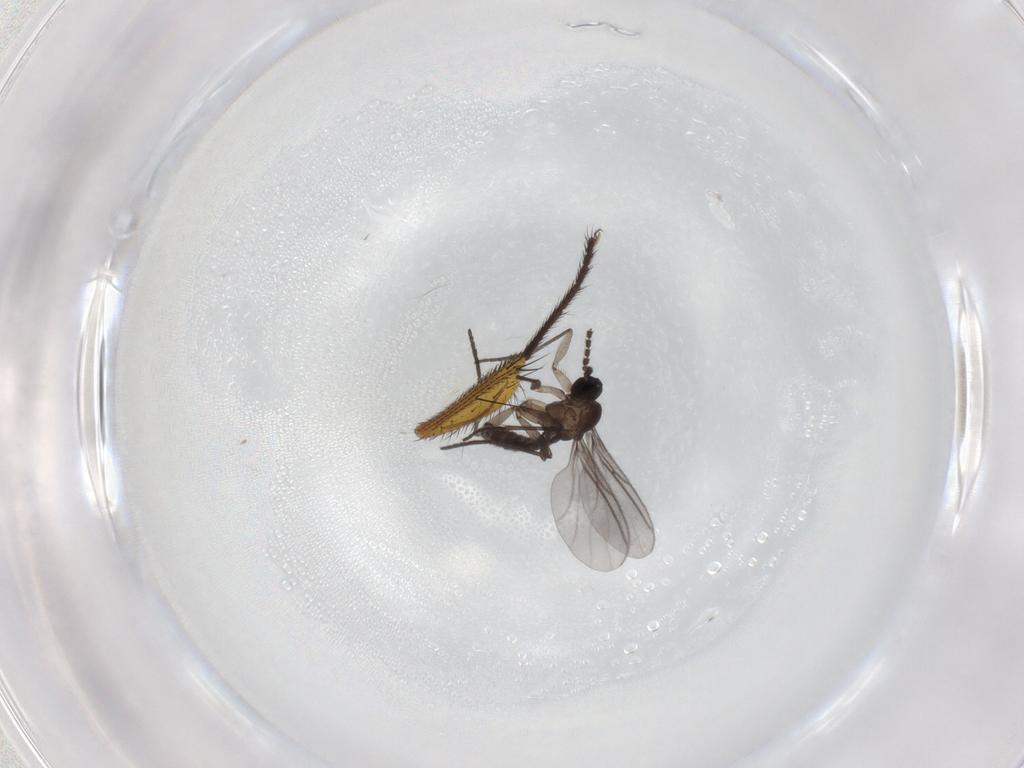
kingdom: Animalia
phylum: Arthropoda
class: Insecta
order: Diptera
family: Muscidae
